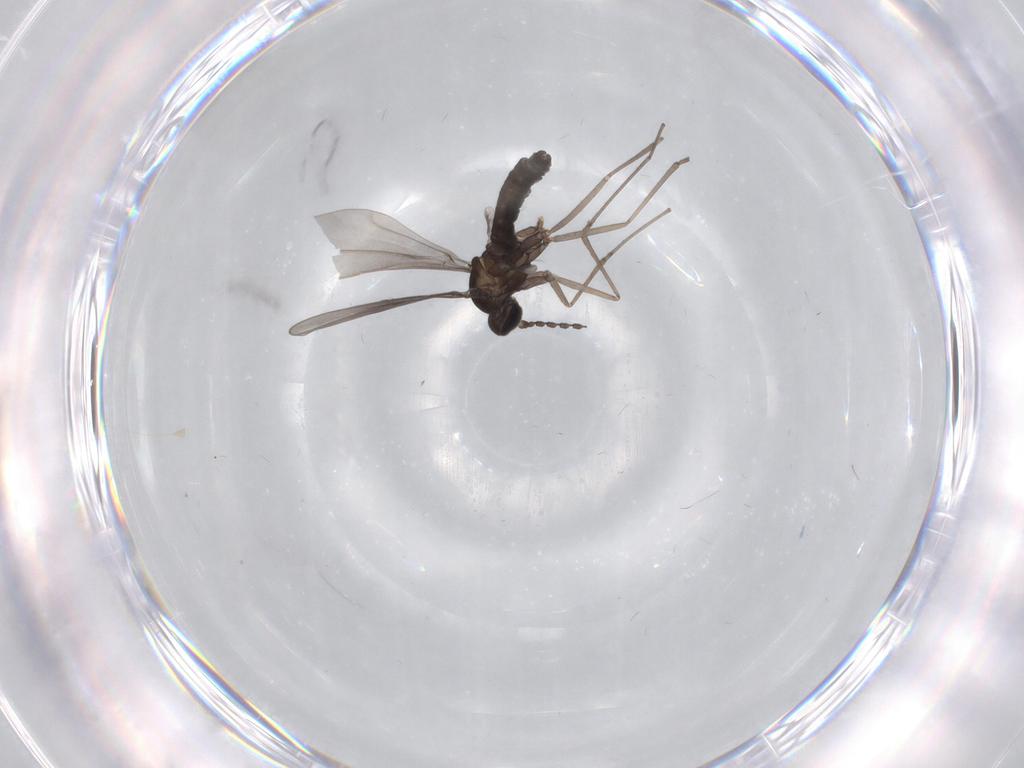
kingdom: Animalia
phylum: Arthropoda
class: Insecta
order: Diptera
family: Cecidomyiidae
